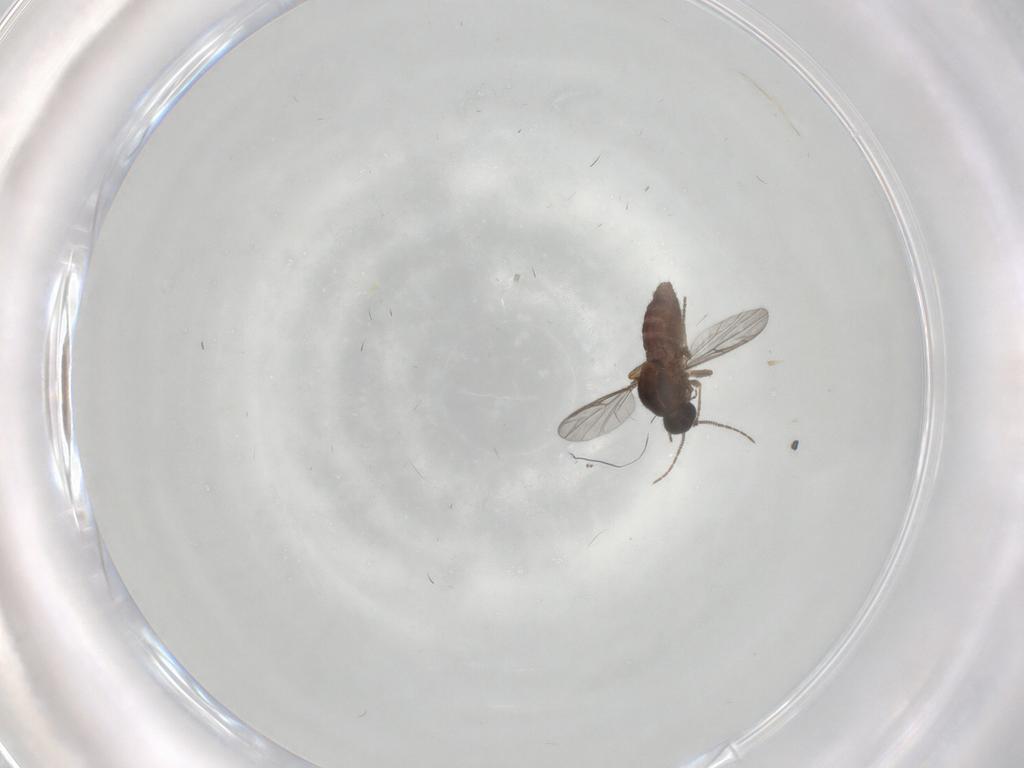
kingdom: Animalia
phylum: Arthropoda
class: Insecta
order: Diptera
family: Ceratopogonidae
